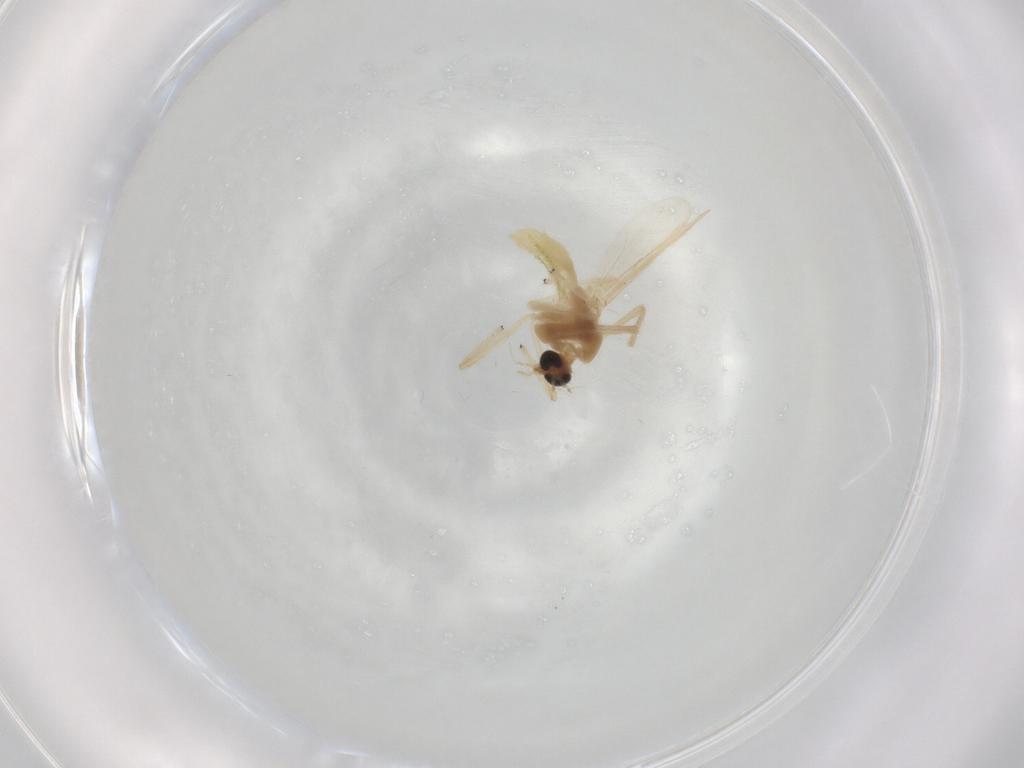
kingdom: Animalia
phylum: Arthropoda
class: Insecta
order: Diptera
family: Chironomidae
